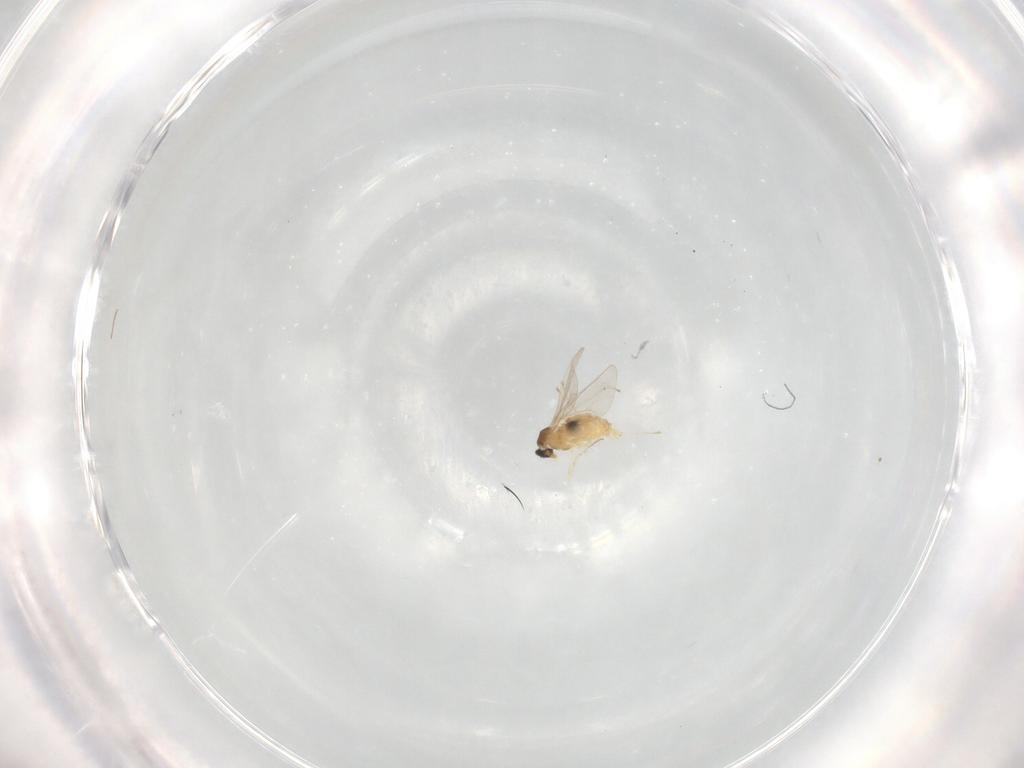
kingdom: Animalia
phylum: Arthropoda
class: Insecta
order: Diptera
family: Cecidomyiidae
